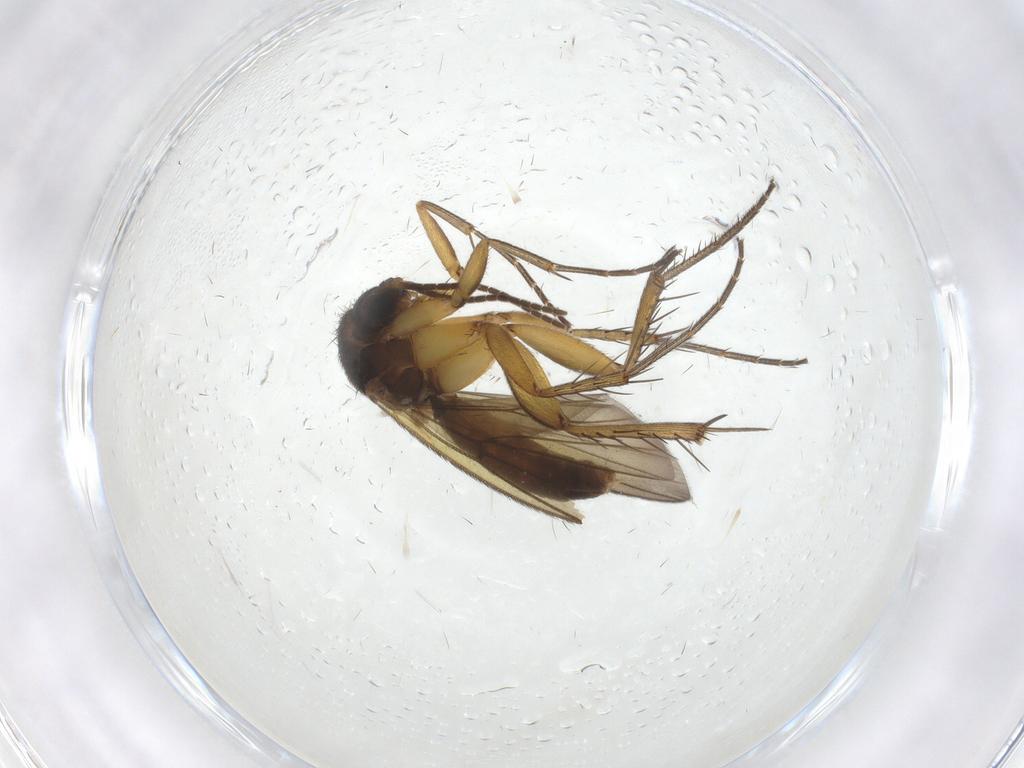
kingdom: Animalia
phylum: Arthropoda
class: Insecta
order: Diptera
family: Mycetophilidae
